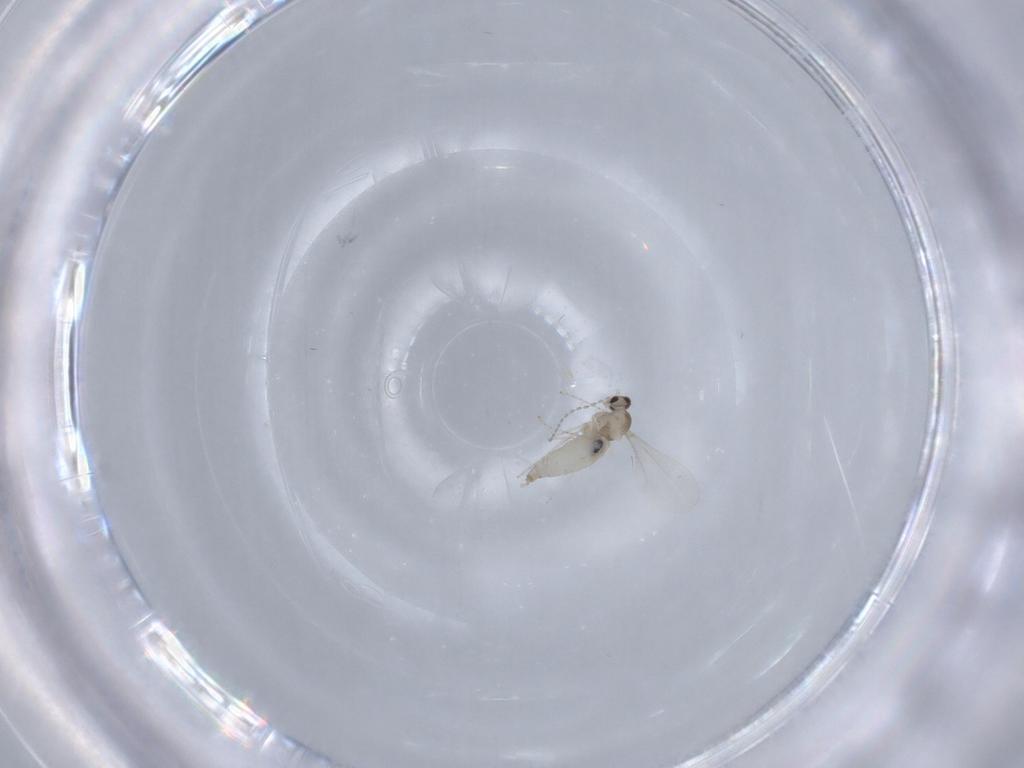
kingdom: Animalia
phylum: Arthropoda
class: Insecta
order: Diptera
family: Cecidomyiidae
